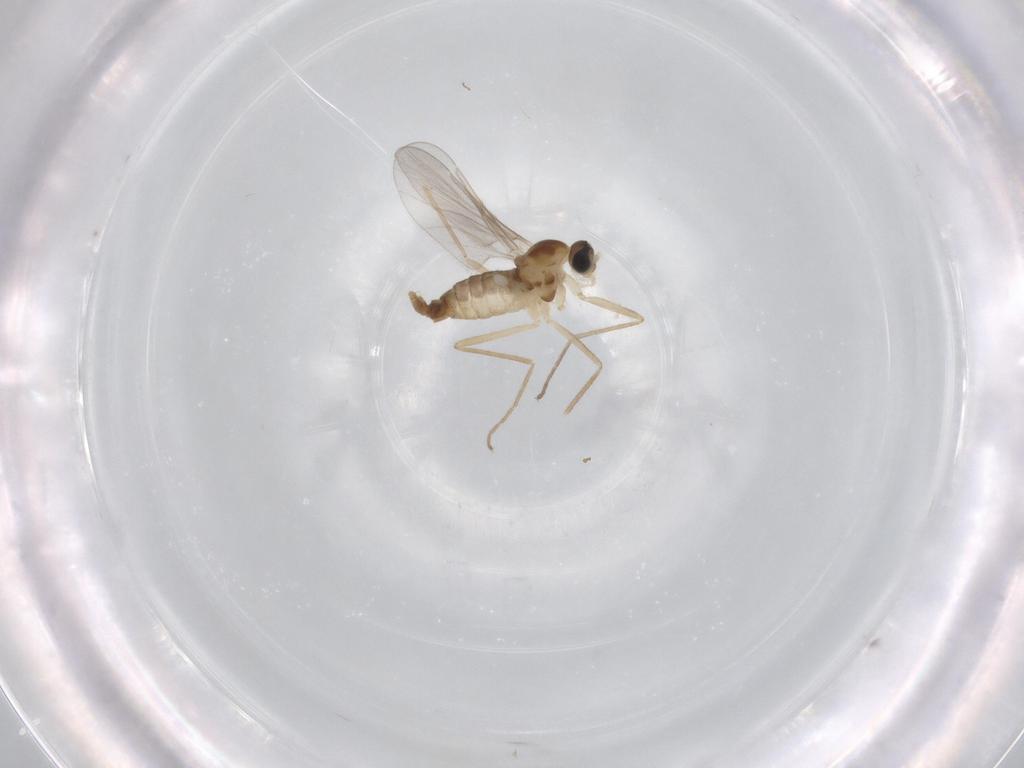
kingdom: Animalia
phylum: Arthropoda
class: Insecta
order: Diptera
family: Cecidomyiidae
